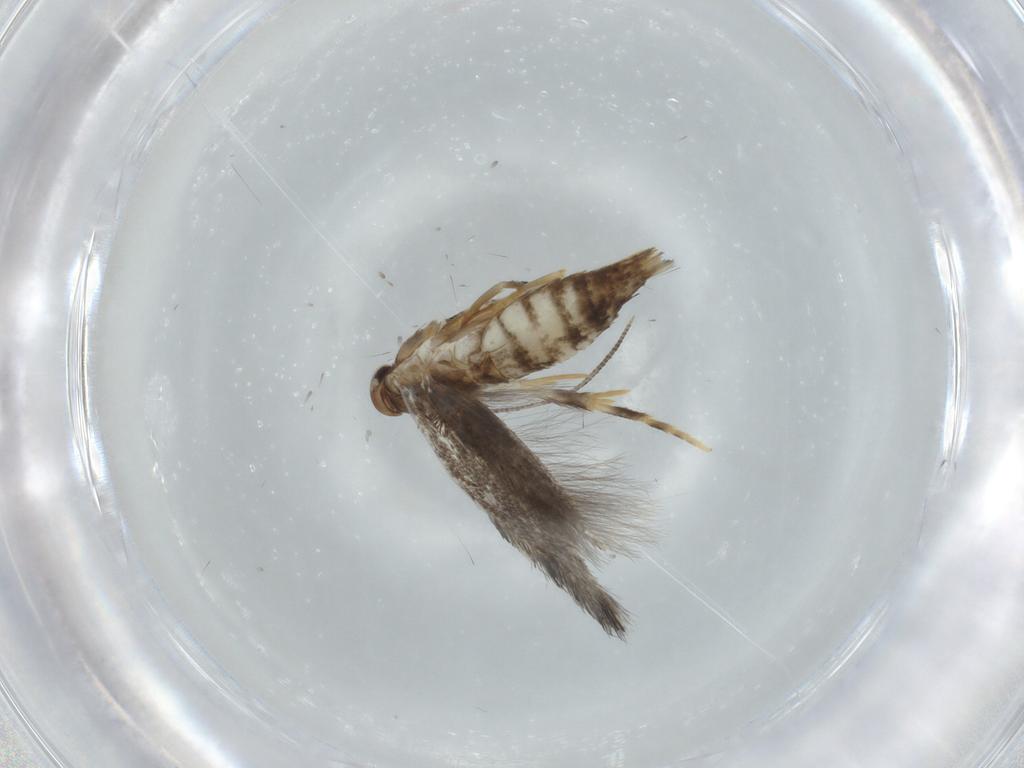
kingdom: Animalia
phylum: Arthropoda
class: Insecta
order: Lepidoptera
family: Elachistidae
